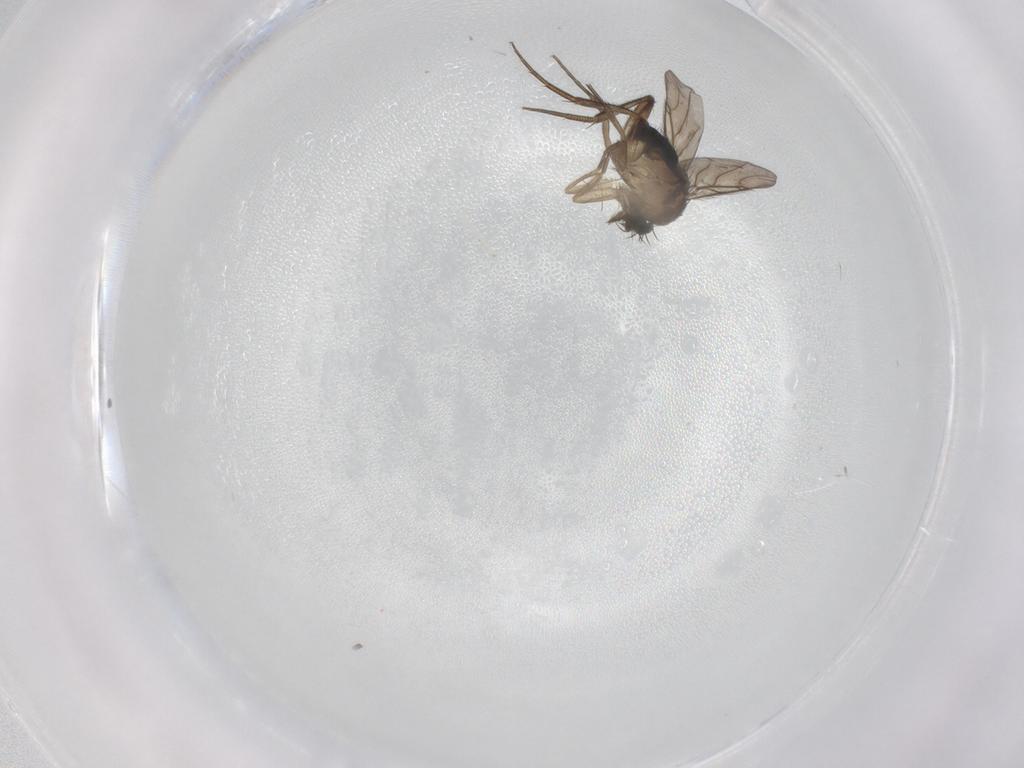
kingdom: Animalia
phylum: Arthropoda
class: Insecta
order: Diptera
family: Phoridae
